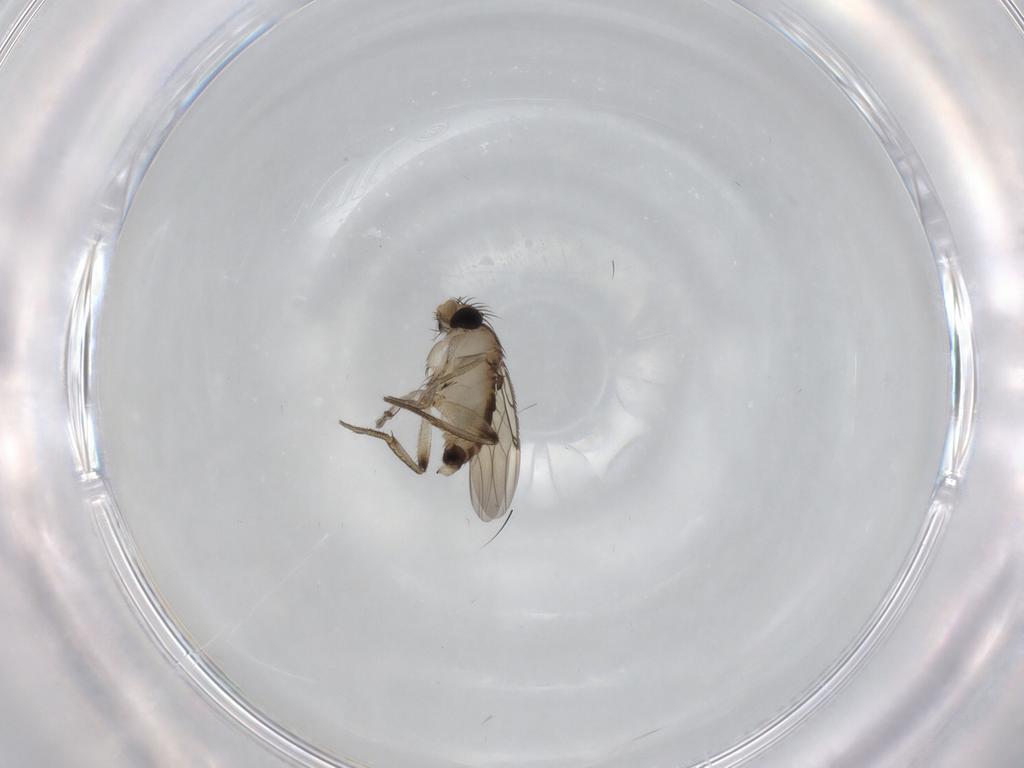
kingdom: Animalia
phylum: Arthropoda
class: Insecta
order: Diptera
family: Phoridae
